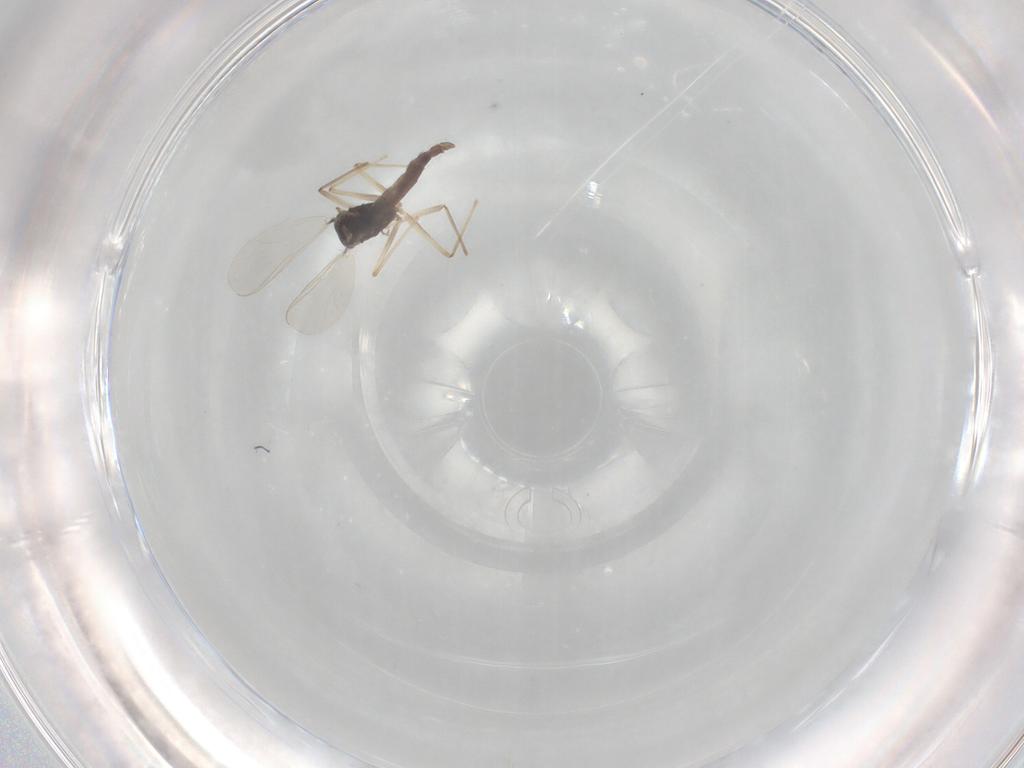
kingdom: Animalia
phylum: Arthropoda
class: Insecta
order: Diptera
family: Chironomidae
